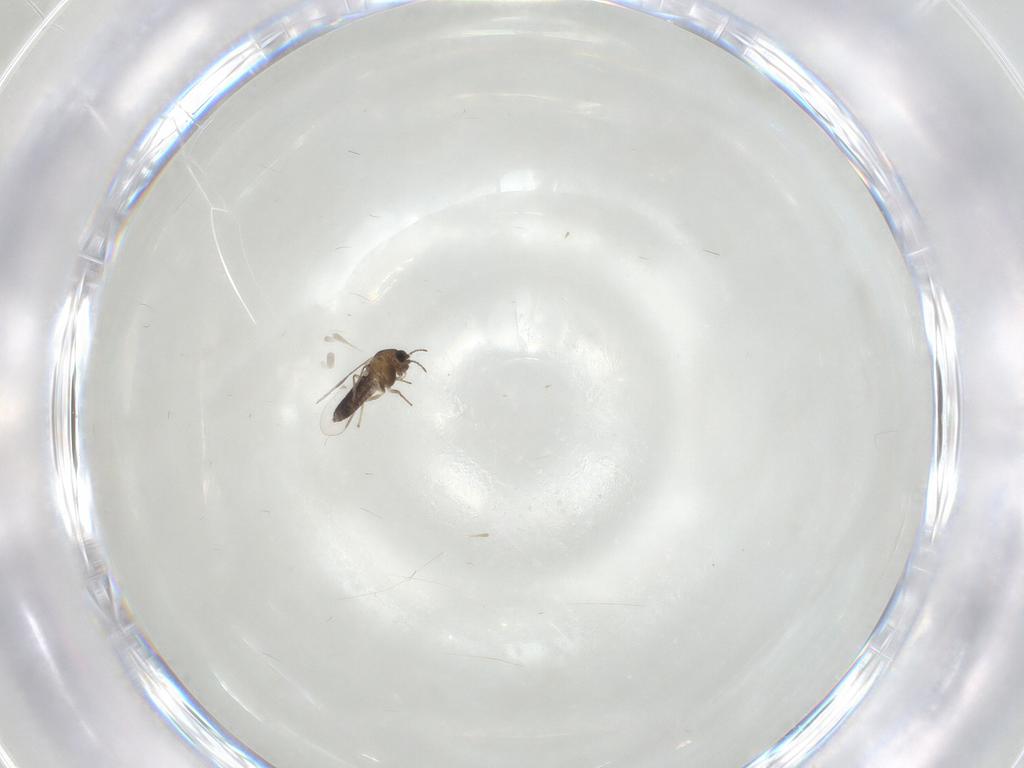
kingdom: Animalia
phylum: Arthropoda
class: Insecta
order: Diptera
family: Chironomidae
